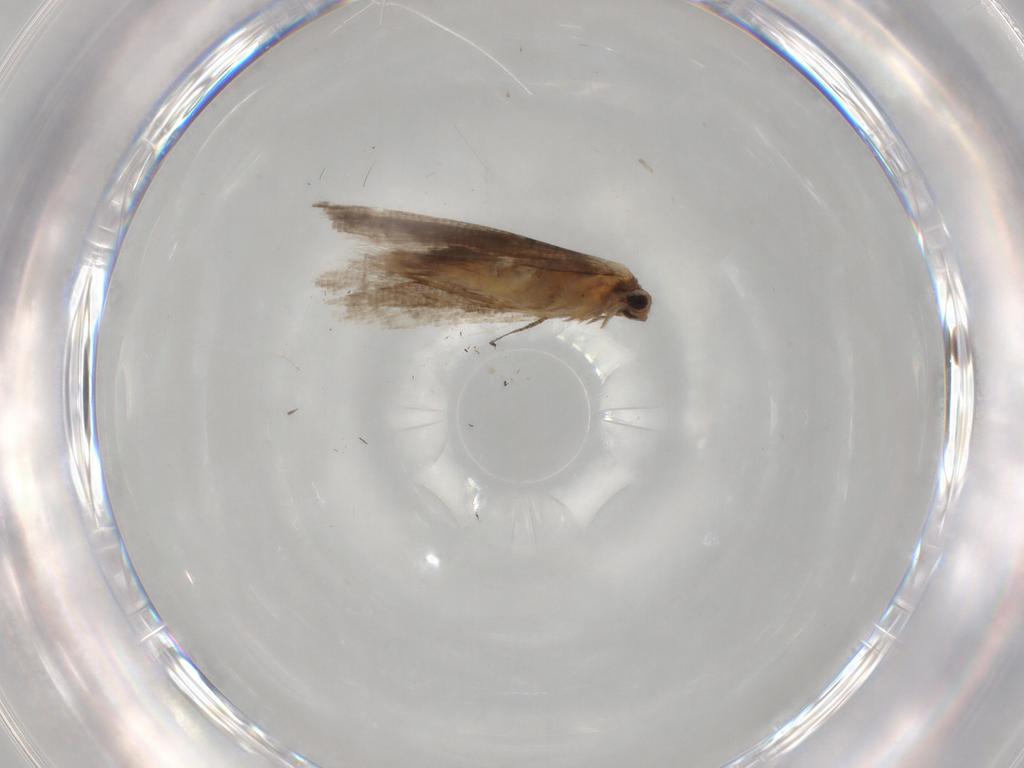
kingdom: Animalia
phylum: Arthropoda
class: Insecta
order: Lepidoptera
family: Glyphipterigidae
